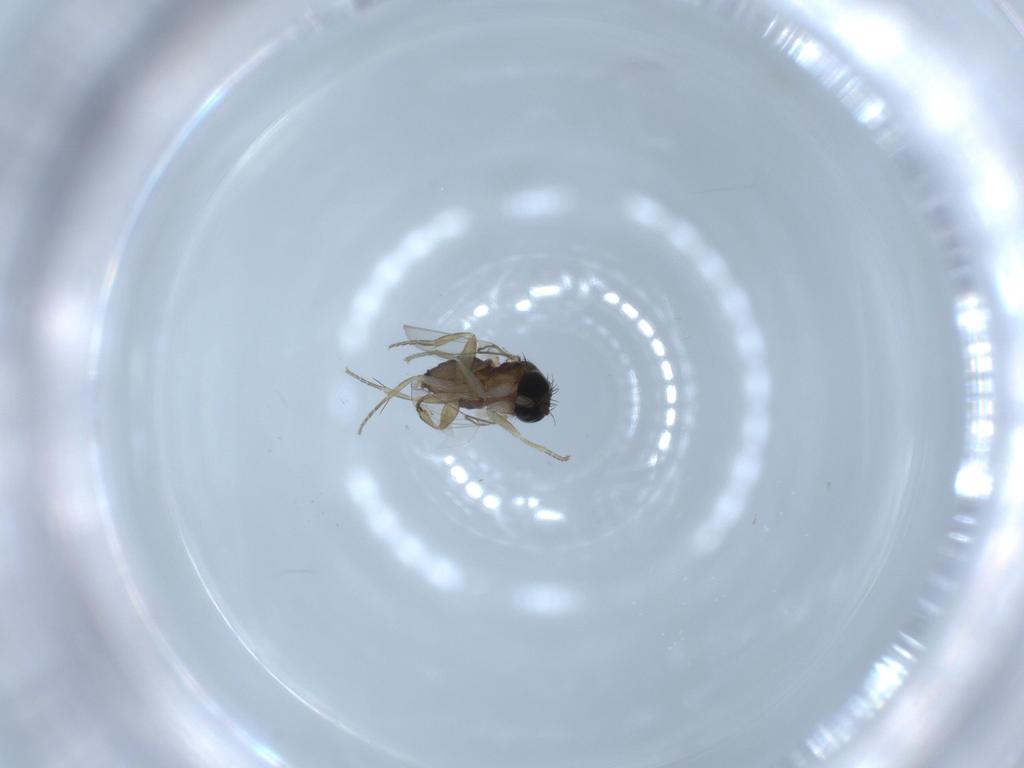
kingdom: Animalia
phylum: Arthropoda
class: Insecta
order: Diptera
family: Phoridae
